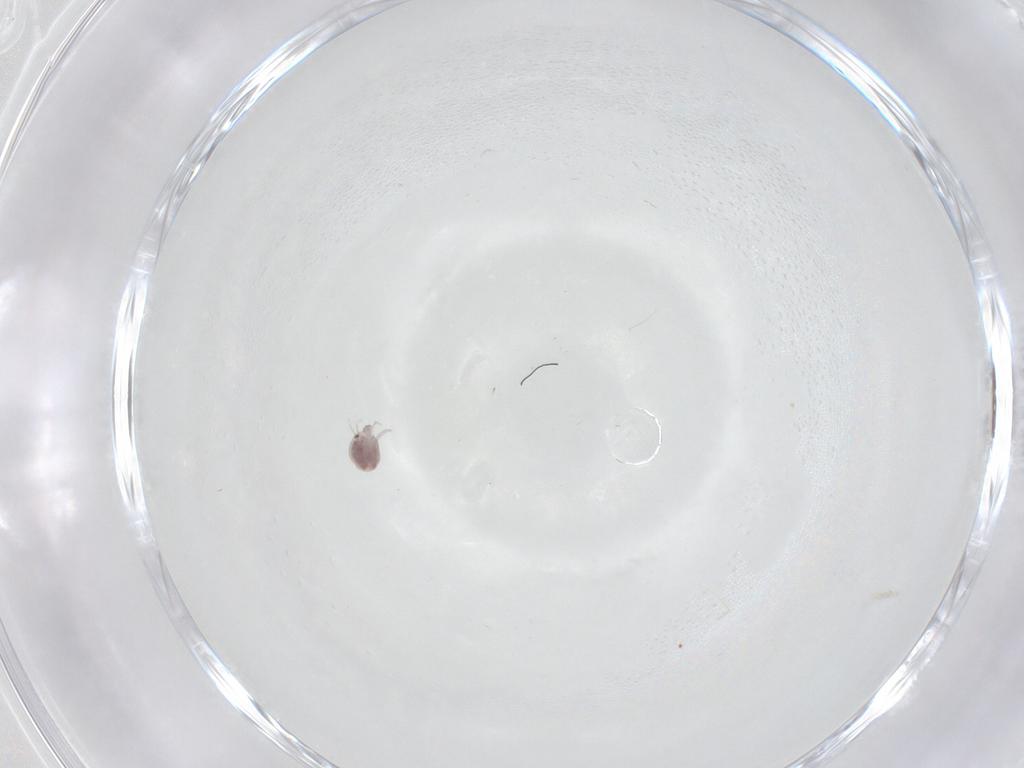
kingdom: Animalia
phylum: Arthropoda
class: Arachnida
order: Trombidiformes
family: Pionidae
